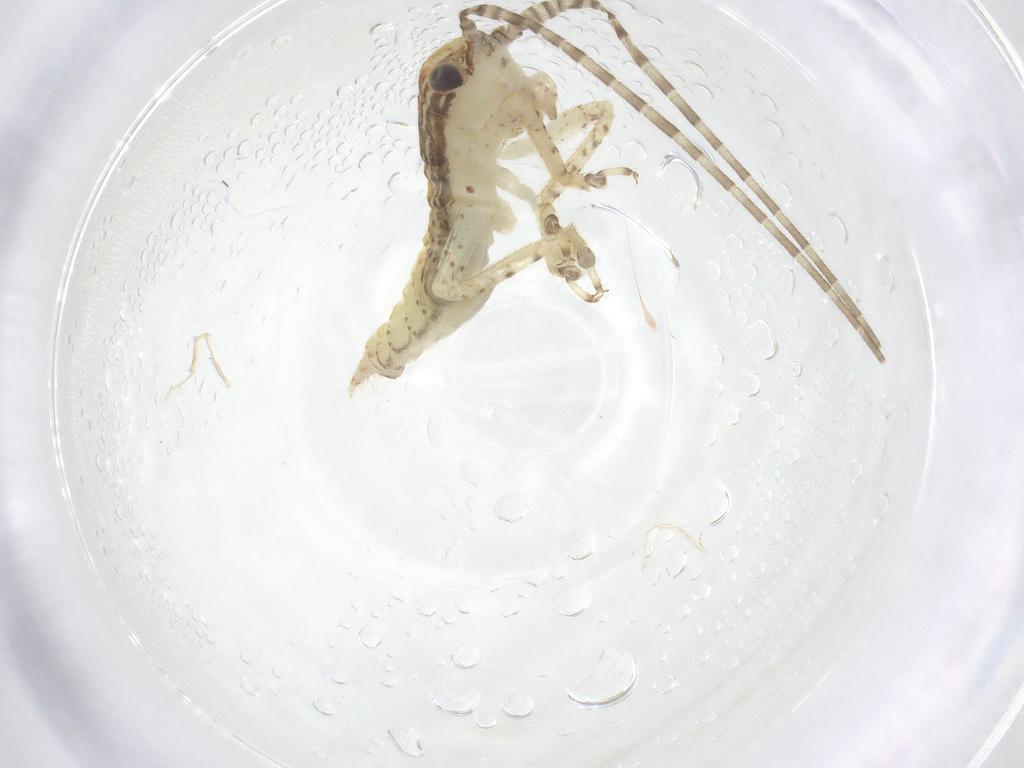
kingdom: Animalia
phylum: Arthropoda
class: Insecta
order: Orthoptera
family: Gryllidae
